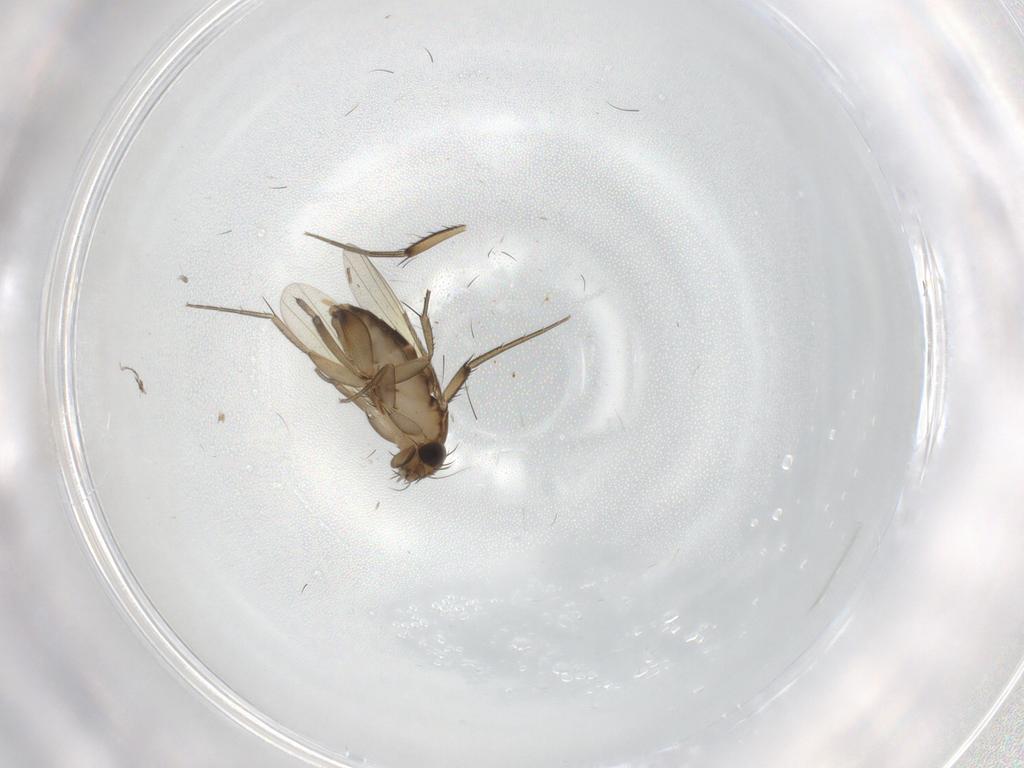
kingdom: Animalia
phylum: Arthropoda
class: Insecta
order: Diptera
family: Phoridae
